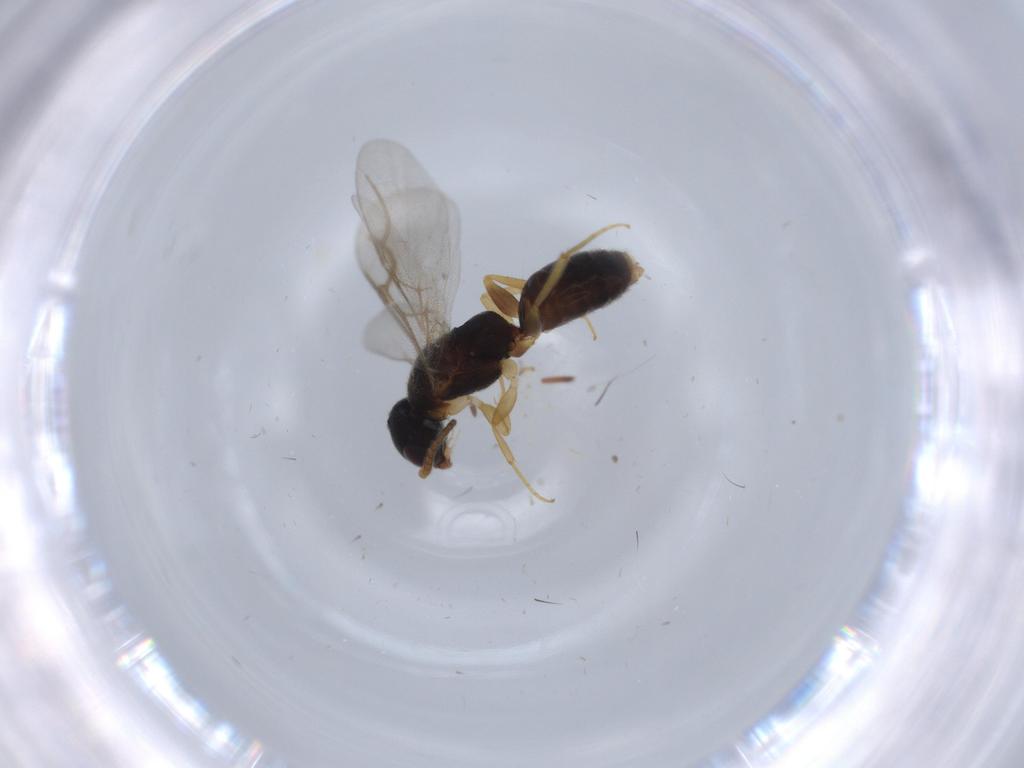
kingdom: Animalia
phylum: Arthropoda
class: Insecta
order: Hymenoptera
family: Bethylidae
